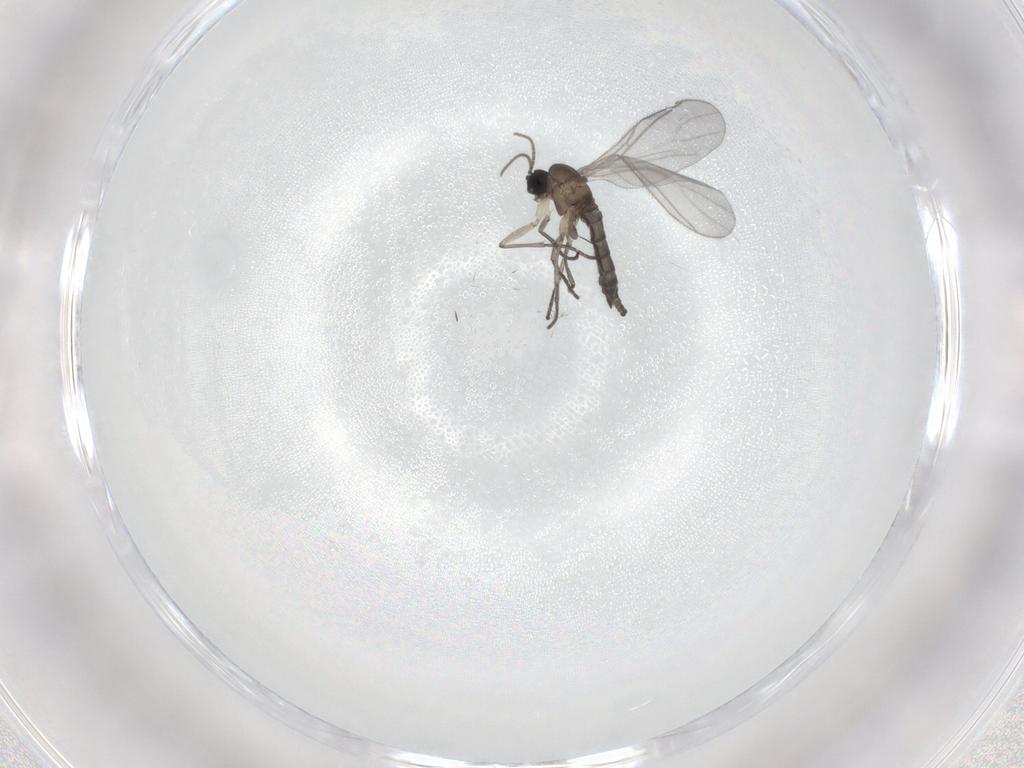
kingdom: Animalia
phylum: Arthropoda
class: Insecta
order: Diptera
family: Sciaridae
